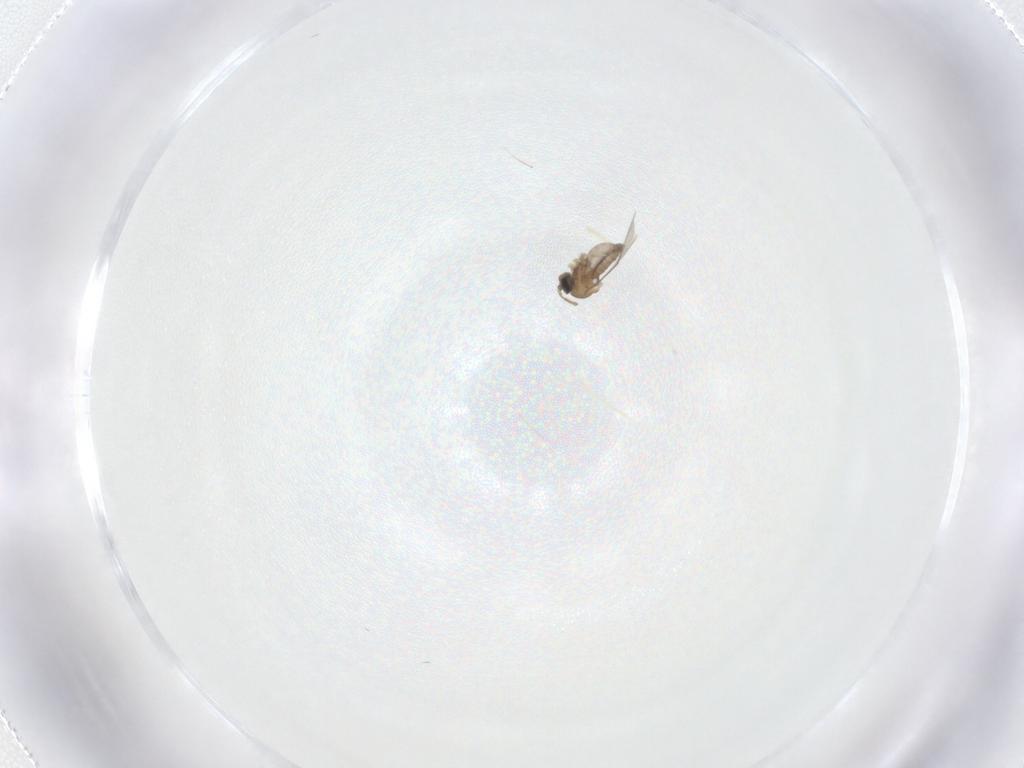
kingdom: Animalia
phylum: Arthropoda
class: Insecta
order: Diptera
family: Cecidomyiidae
